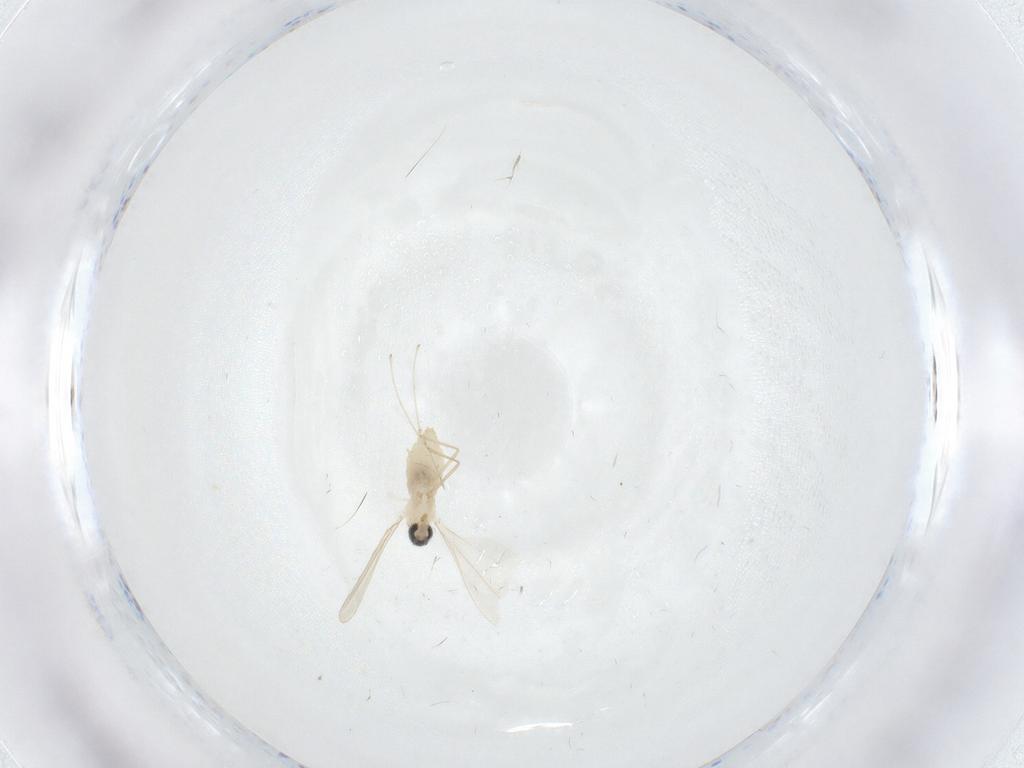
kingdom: Animalia
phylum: Arthropoda
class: Insecta
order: Diptera
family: Cecidomyiidae
